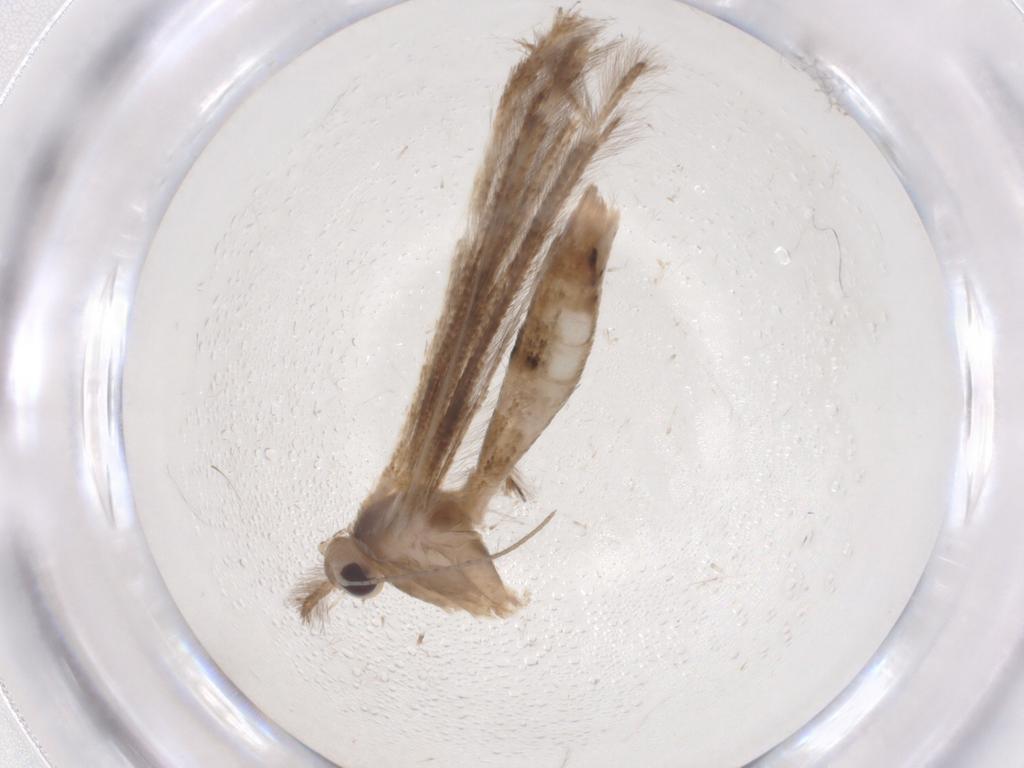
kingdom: Animalia
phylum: Arthropoda
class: Insecta
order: Lepidoptera
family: Pterophoridae
